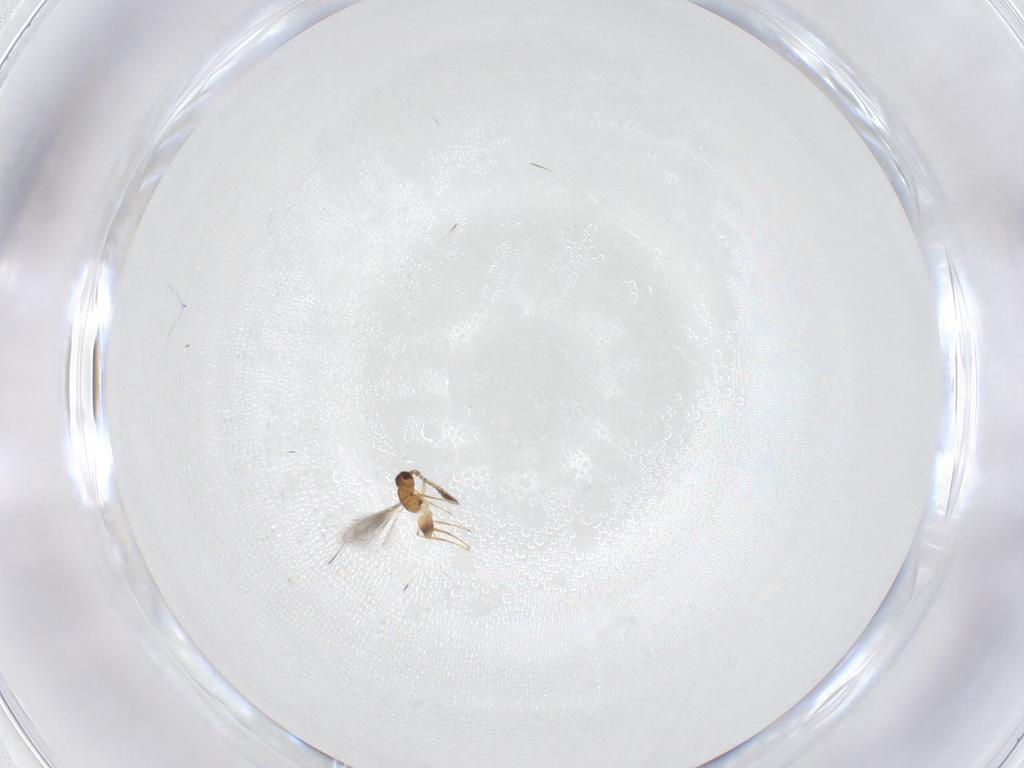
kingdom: Animalia
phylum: Arthropoda
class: Insecta
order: Hymenoptera
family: Mymaridae
